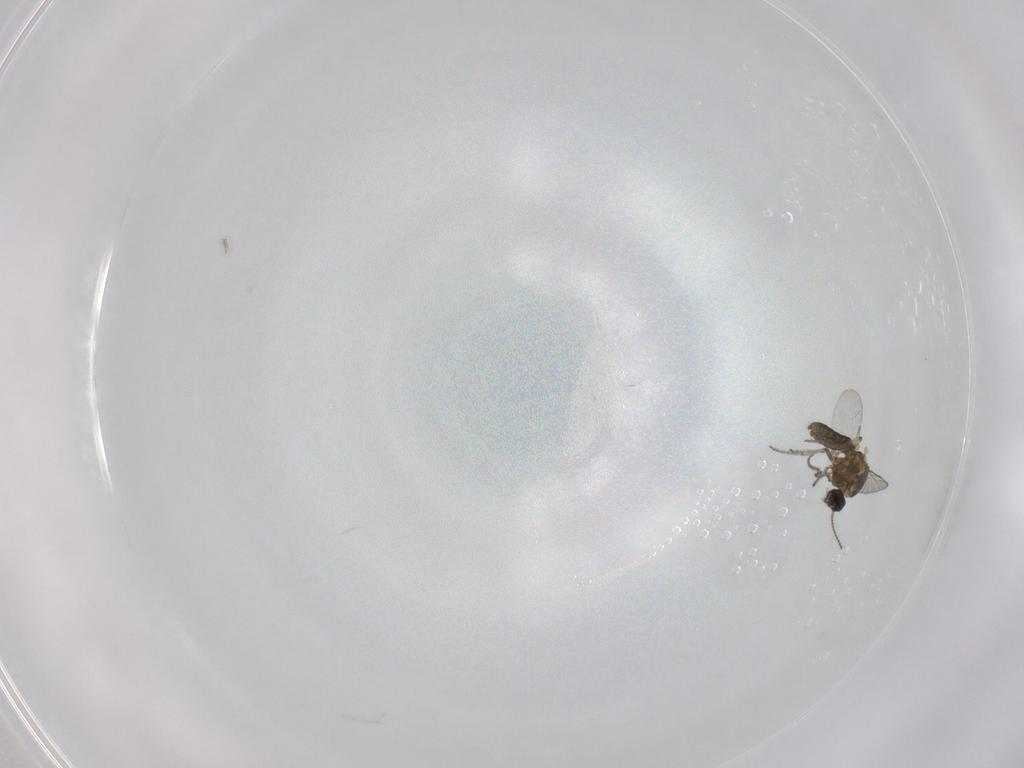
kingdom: Animalia
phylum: Arthropoda
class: Insecta
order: Diptera
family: Ceratopogonidae
